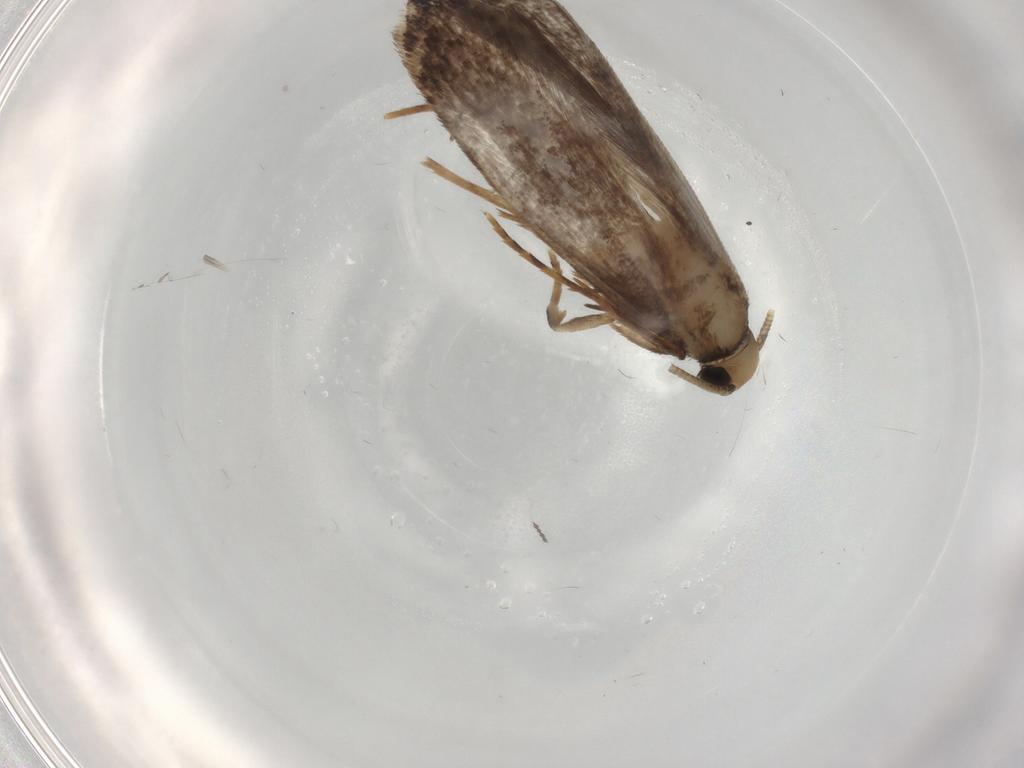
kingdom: Animalia
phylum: Arthropoda
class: Insecta
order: Lepidoptera
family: Tineidae
